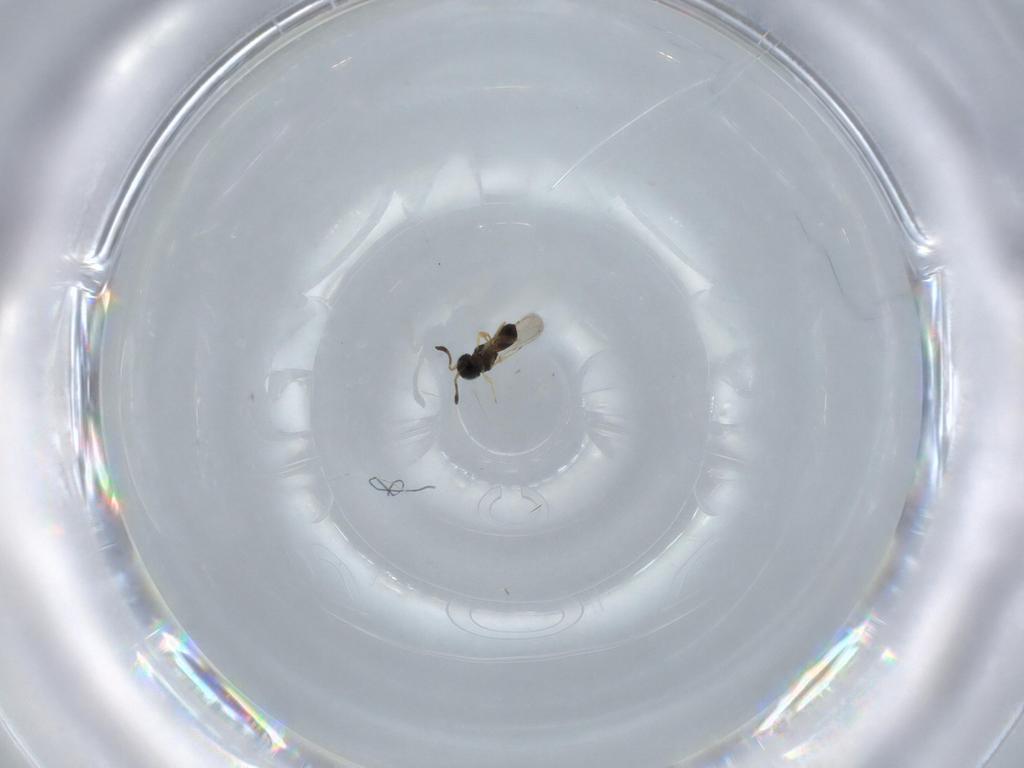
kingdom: Animalia
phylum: Arthropoda
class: Insecta
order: Hymenoptera
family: Scelionidae
